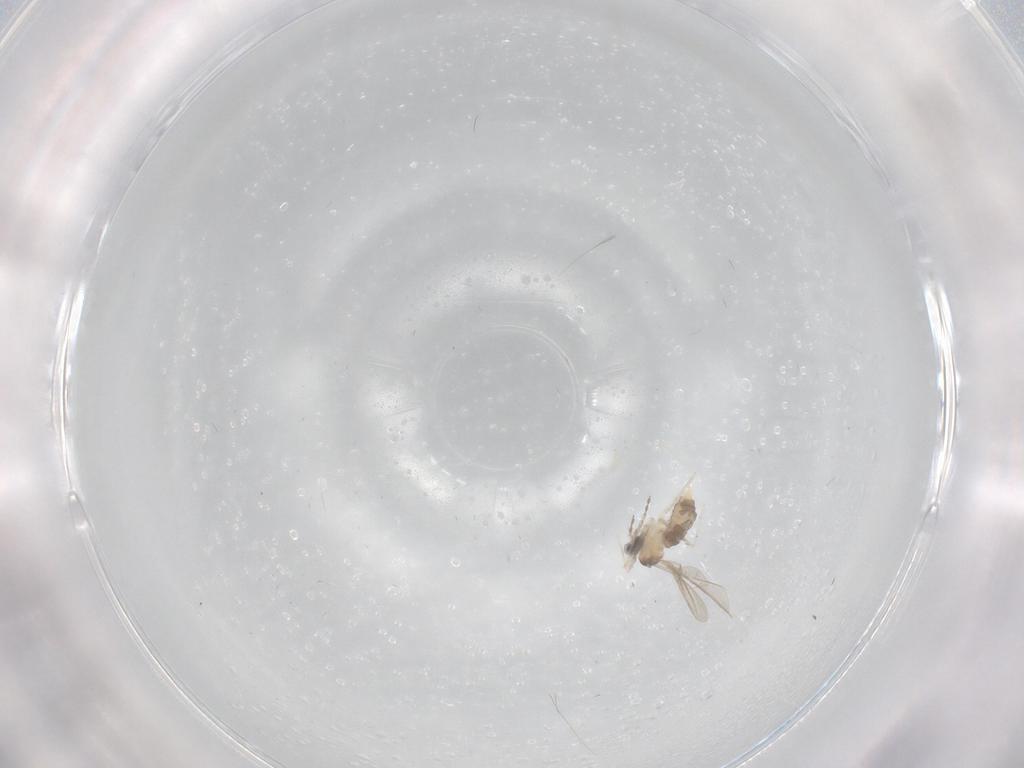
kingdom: Animalia
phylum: Arthropoda
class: Insecta
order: Diptera
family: Cecidomyiidae
